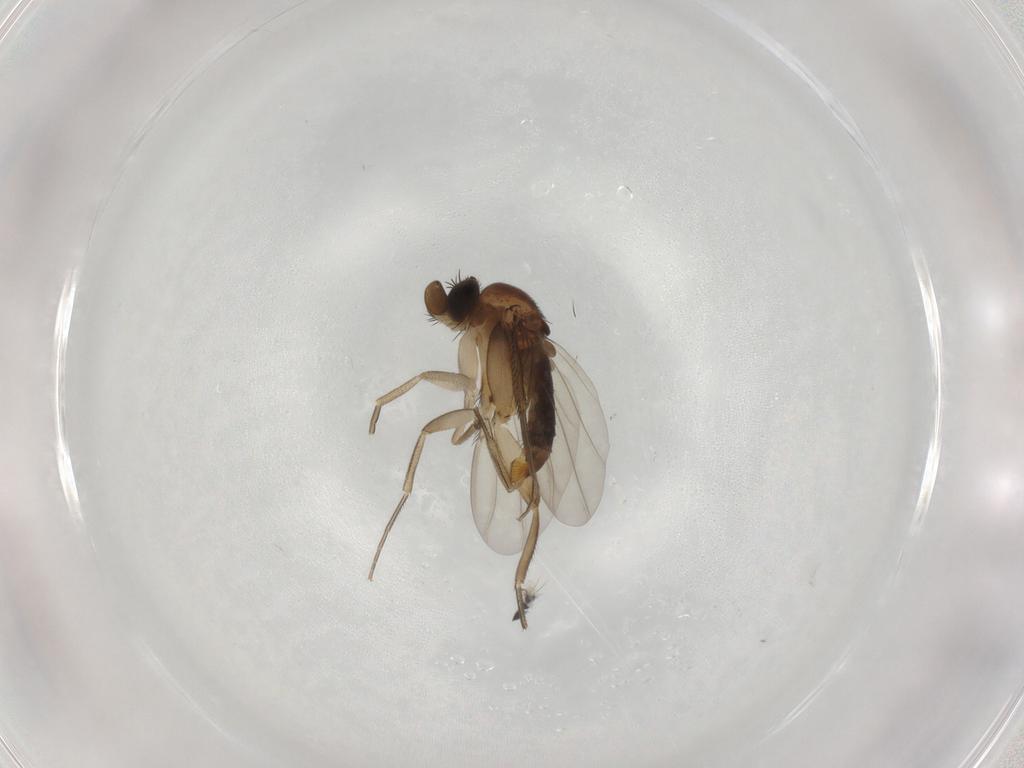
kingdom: Animalia
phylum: Arthropoda
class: Insecta
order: Diptera
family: Phoridae
